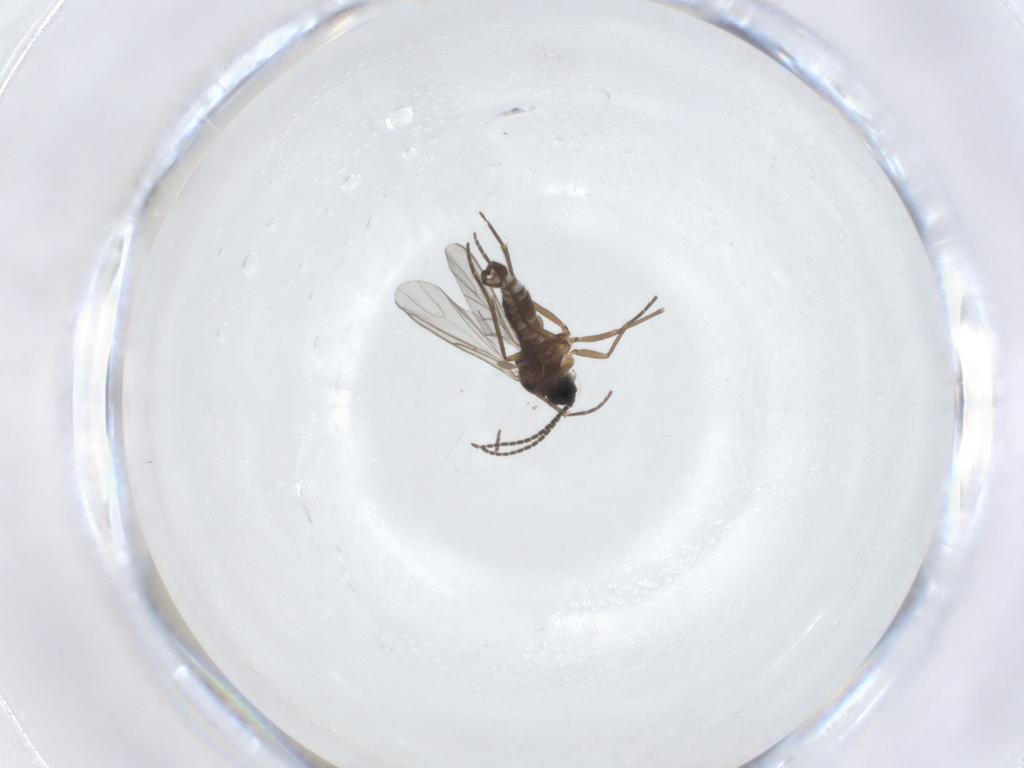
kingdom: Animalia
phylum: Arthropoda
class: Insecta
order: Diptera
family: Sciaridae
